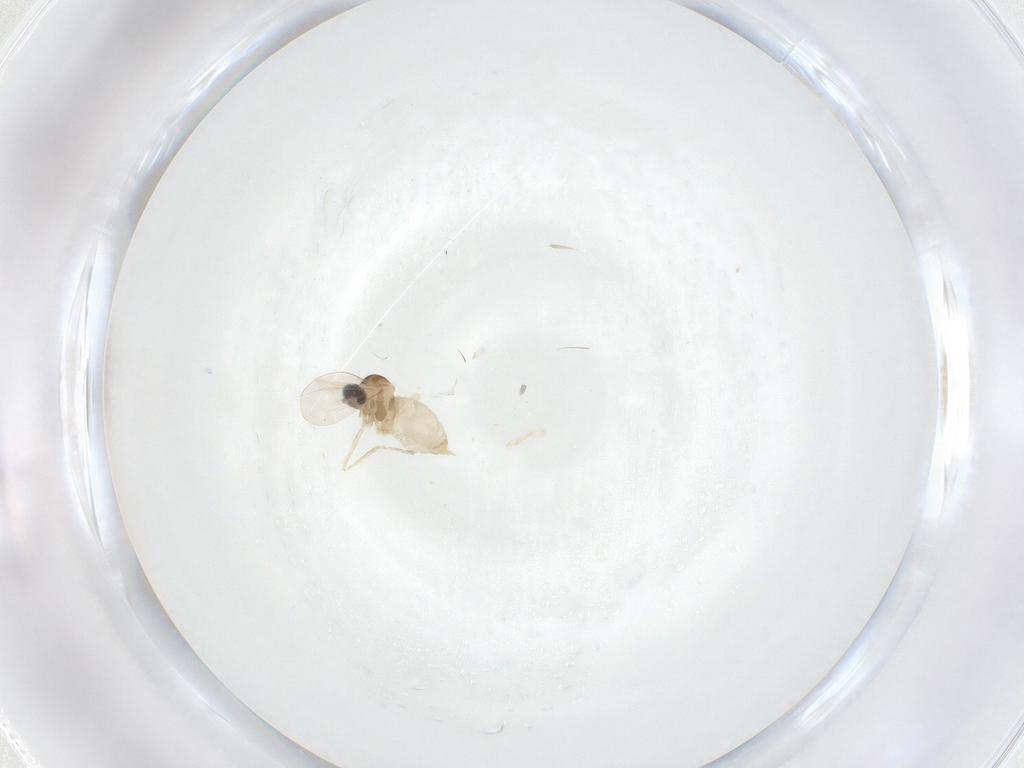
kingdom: Animalia
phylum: Arthropoda
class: Insecta
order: Diptera
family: Cecidomyiidae
